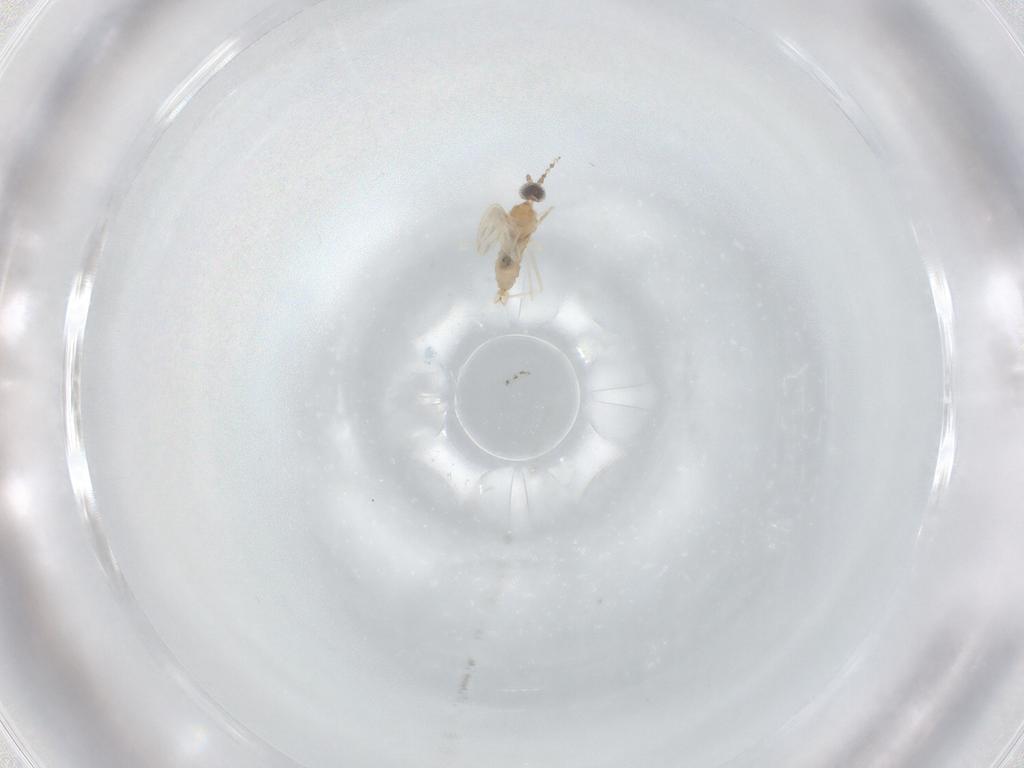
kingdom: Animalia
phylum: Arthropoda
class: Insecta
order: Diptera
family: Cecidomyiidae
